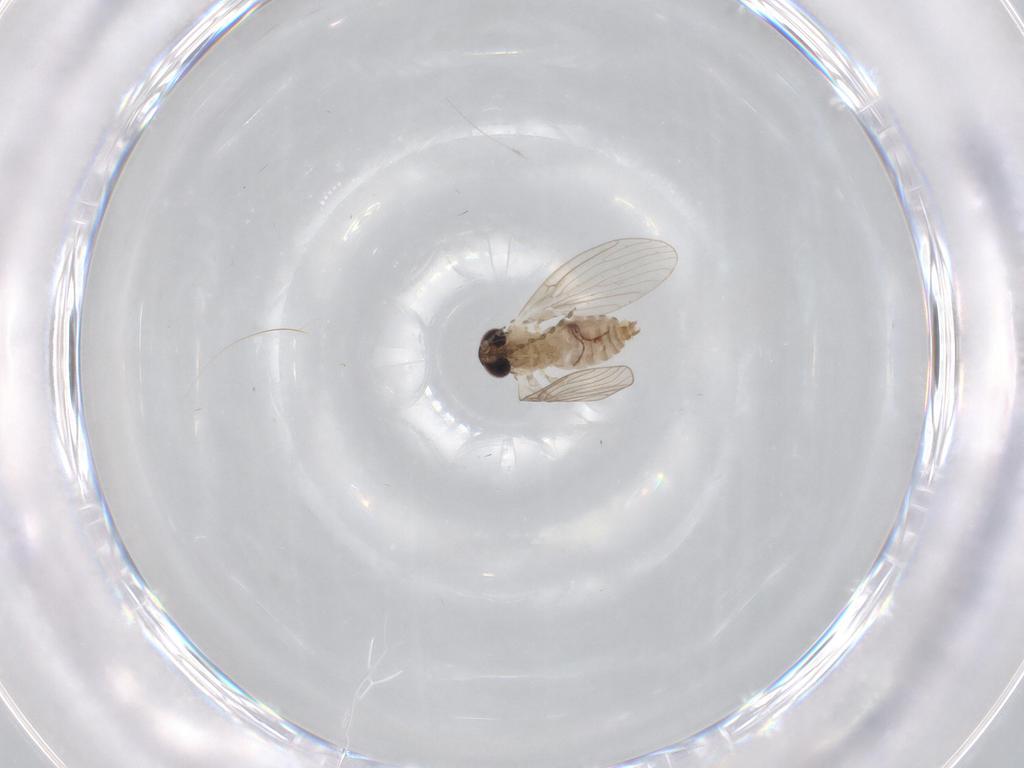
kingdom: Animalia
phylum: Arthropoda
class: Insecta
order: Diptera
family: Psychodidae
